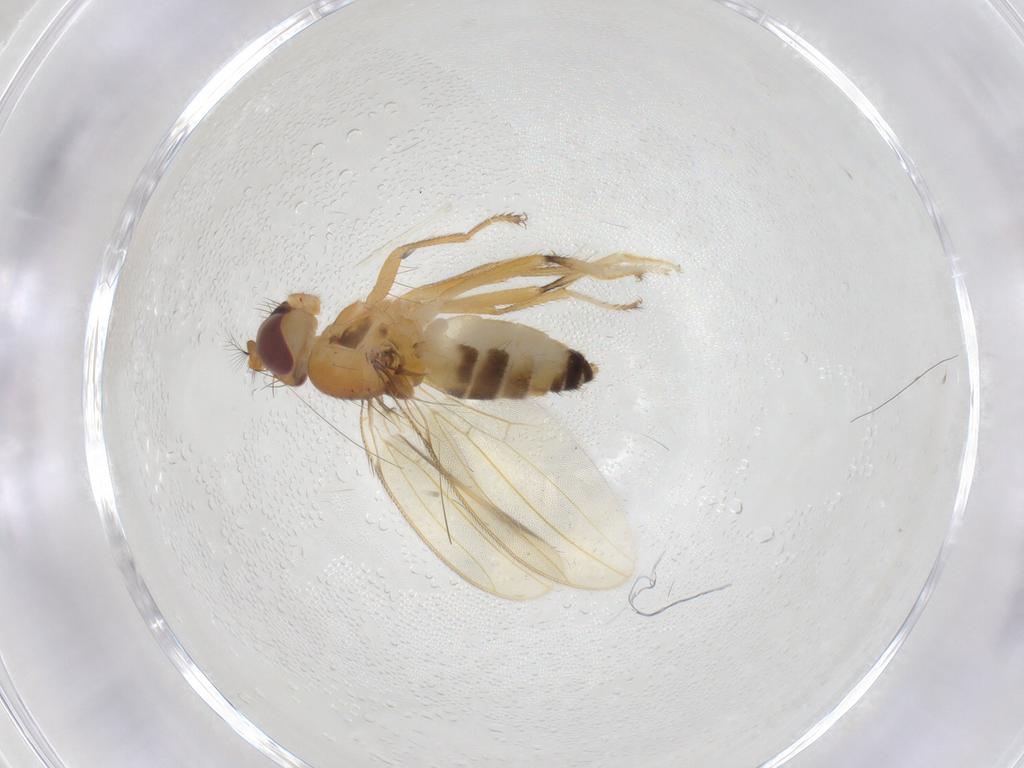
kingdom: Animalia
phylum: Arthropoda
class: Insecta
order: Diptera
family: Periscelididae
